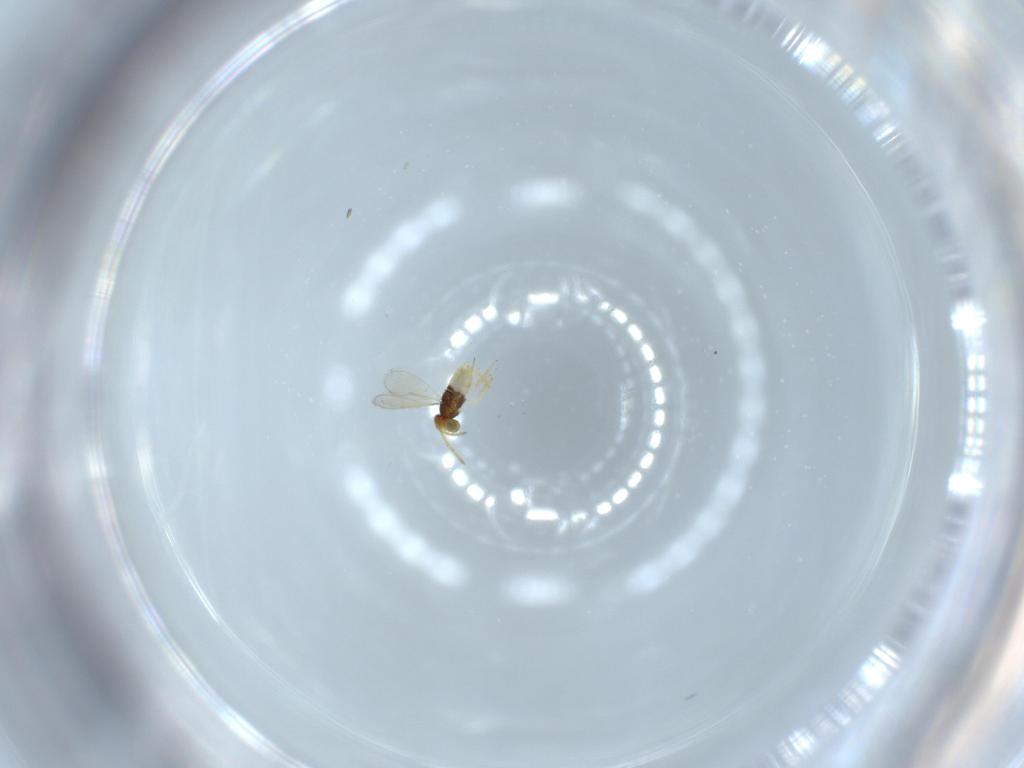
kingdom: Animalia
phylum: Arthropoda
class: Insecta
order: Hymenoptera
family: Aphelinidae
